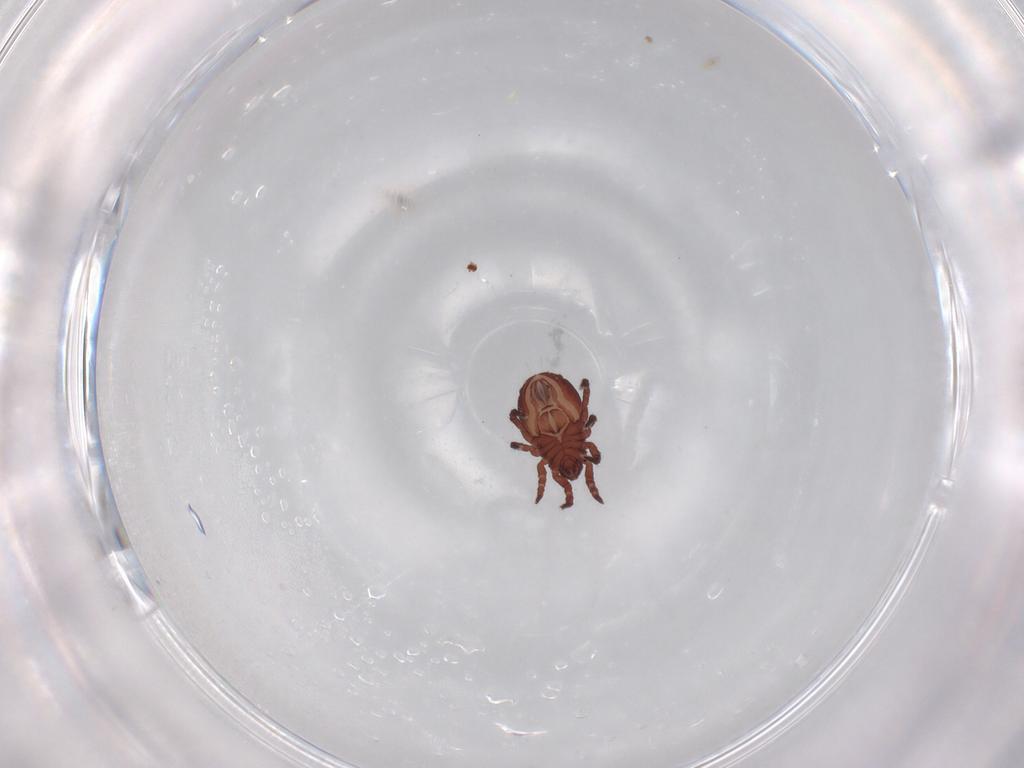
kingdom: Animalia
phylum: Arthropoda
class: Arachnida
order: Sarcoptiformes
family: Nothridae
